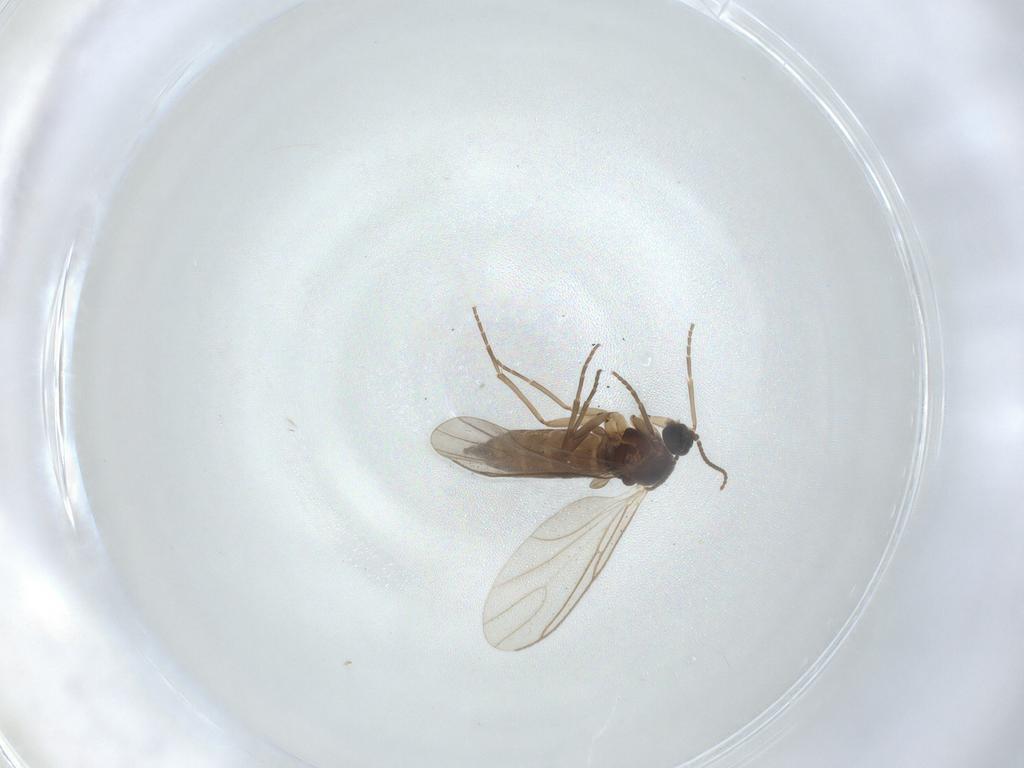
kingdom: Animalia
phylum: Arthropoda
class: Insecta
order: Diptera
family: Sciaridae
